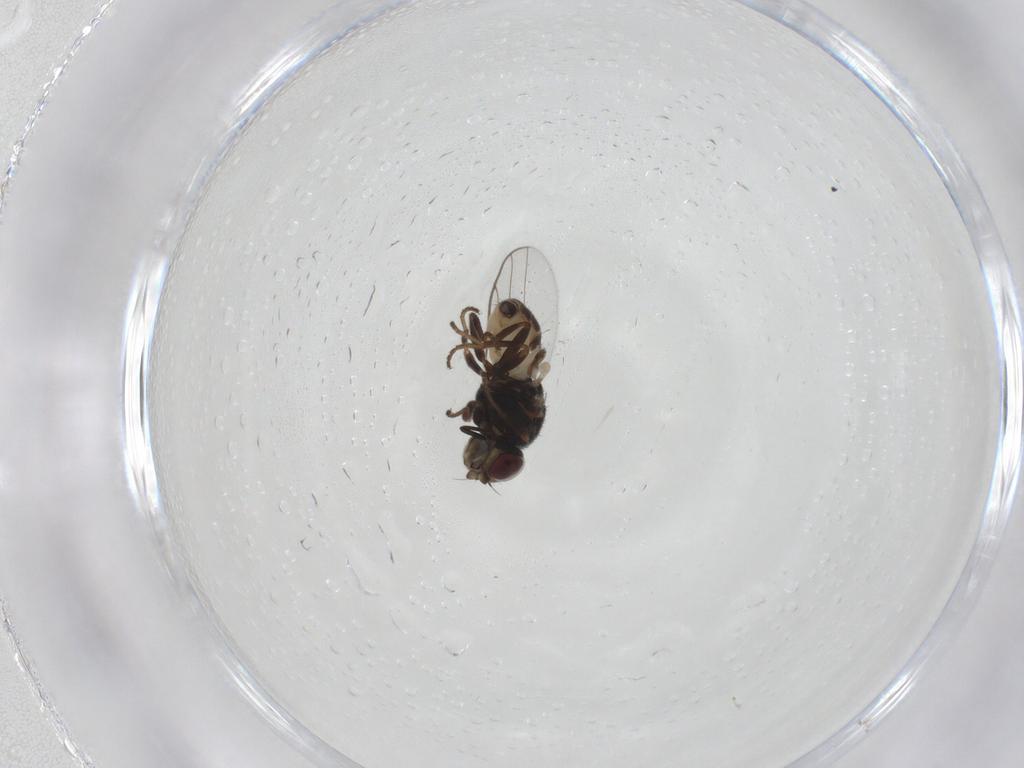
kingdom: Animalia
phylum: Arthropoda
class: Insecta
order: Diptera
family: Chloropidae
